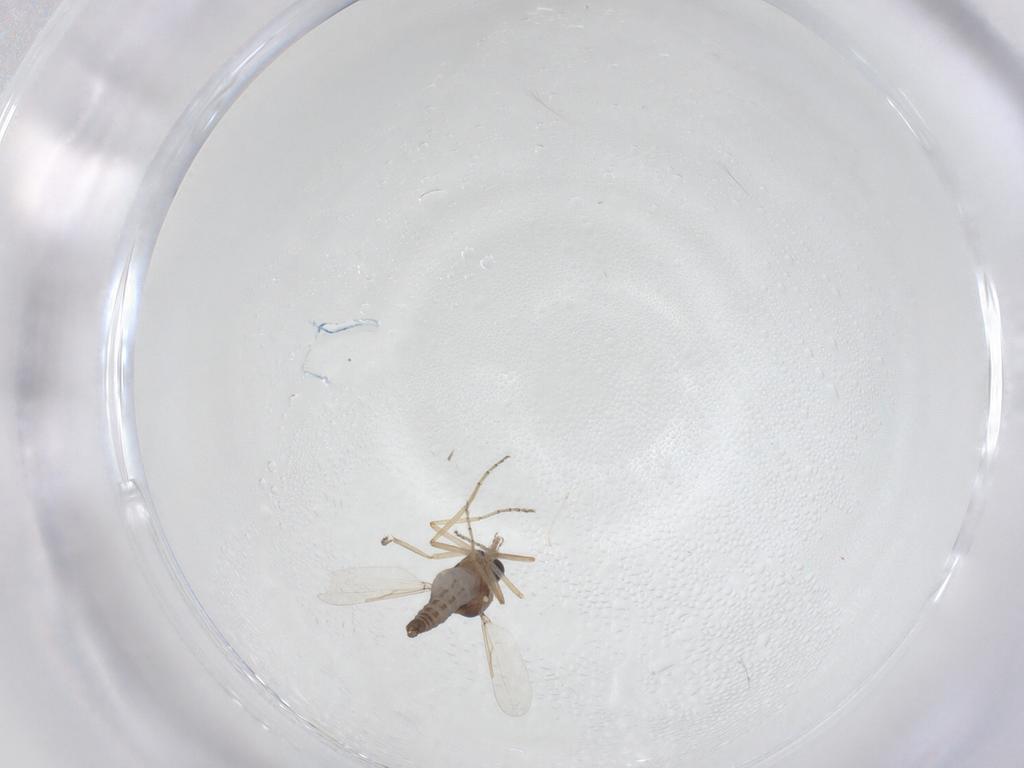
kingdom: Animalia
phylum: Arthropoda
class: Insecta
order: Diptera
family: Ceratopogonidae
